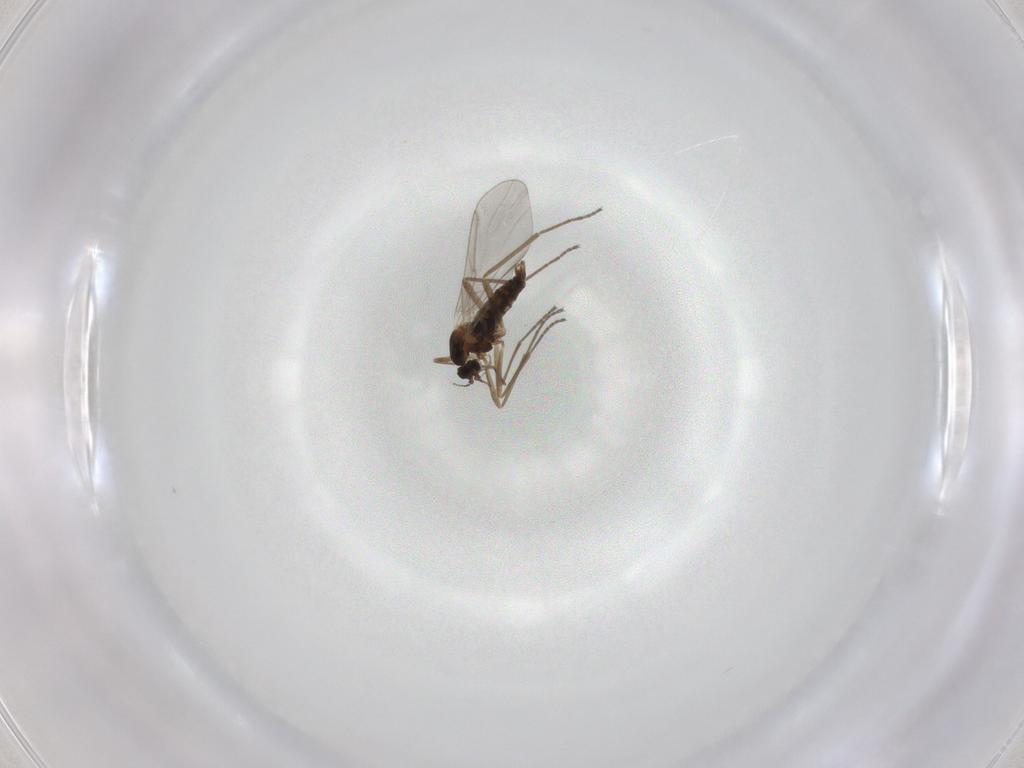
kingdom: Animalia
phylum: Arthropoda
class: Insecta
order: Diptera
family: Cecidomyiidae
